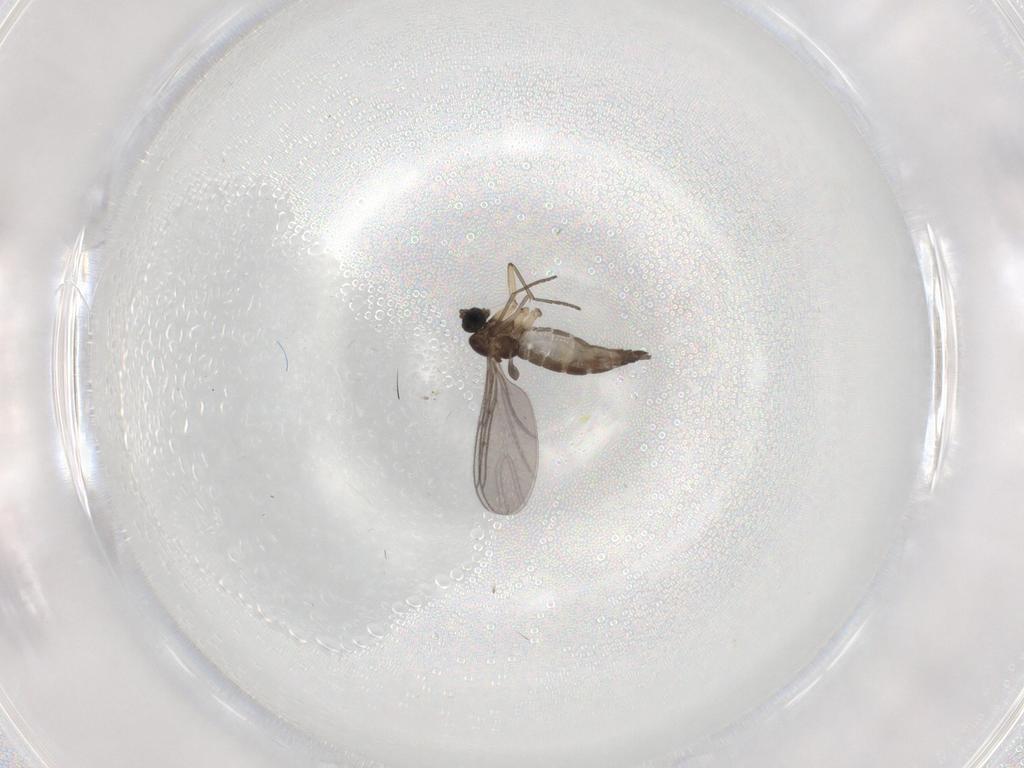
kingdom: Animalia
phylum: Arthropoda
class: Insecta
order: Diptera
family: Sciaridae
